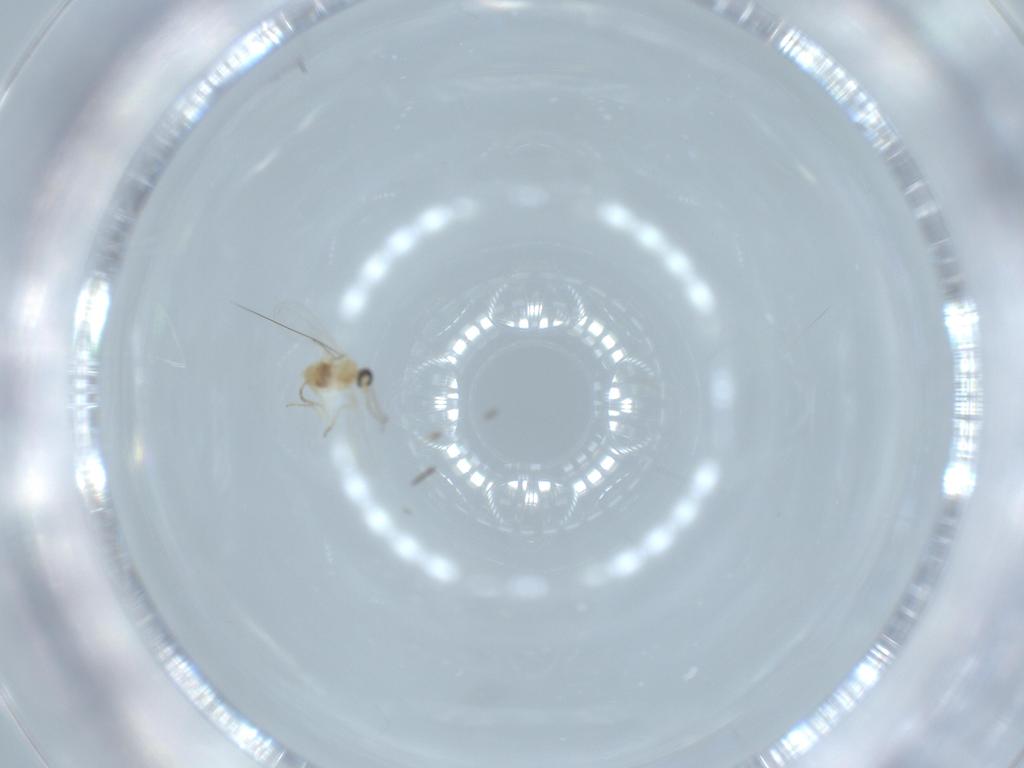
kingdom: Animalia
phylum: Arthropoda
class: Insecta
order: Diptera
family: Cecidomyiidae
